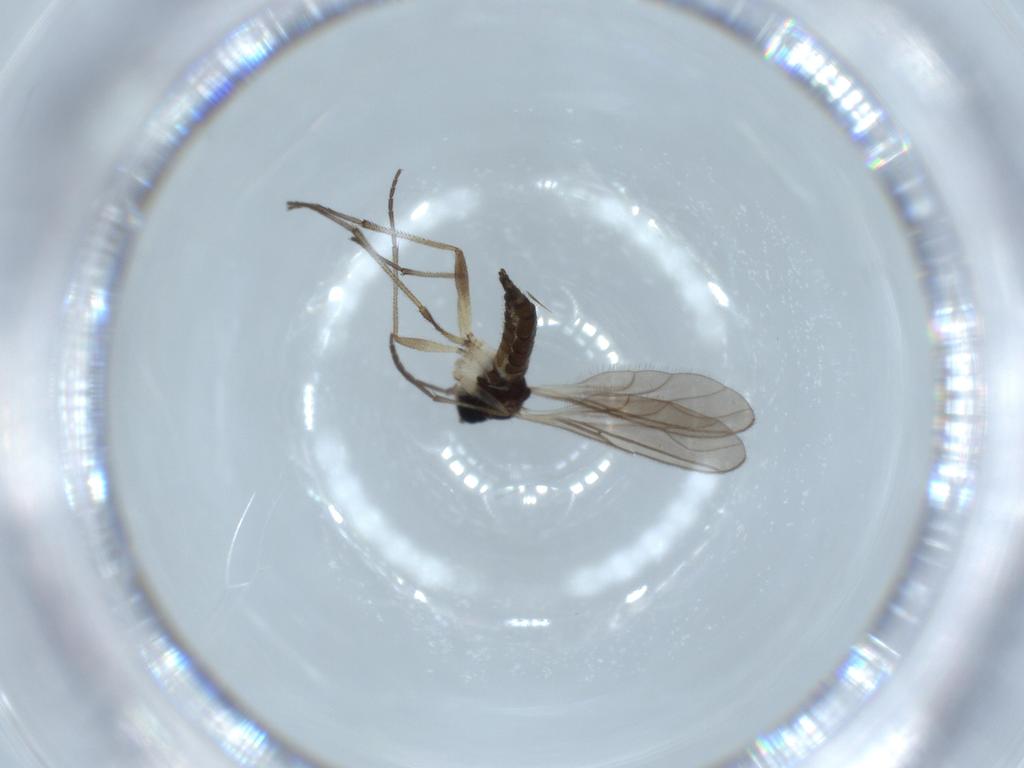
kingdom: Animalia
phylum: Arthropoda
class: Insecta
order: Diptera
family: Sciaridae
